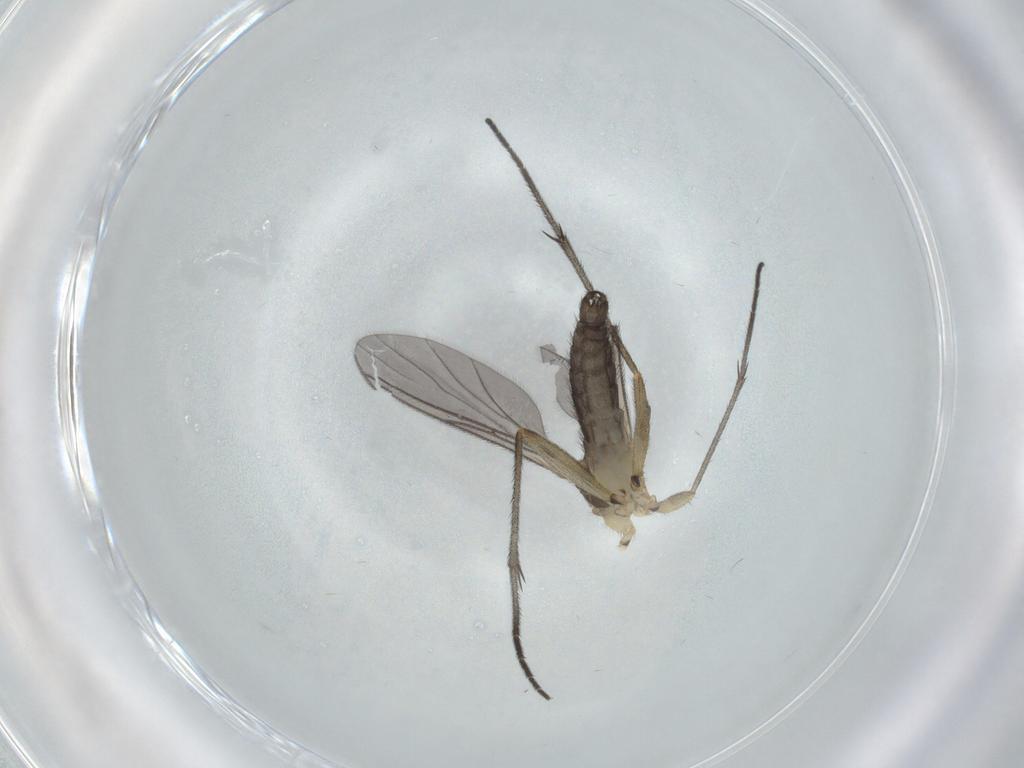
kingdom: Animalia
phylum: Arthropoda
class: Insecta
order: Diptera
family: Sciaridae
